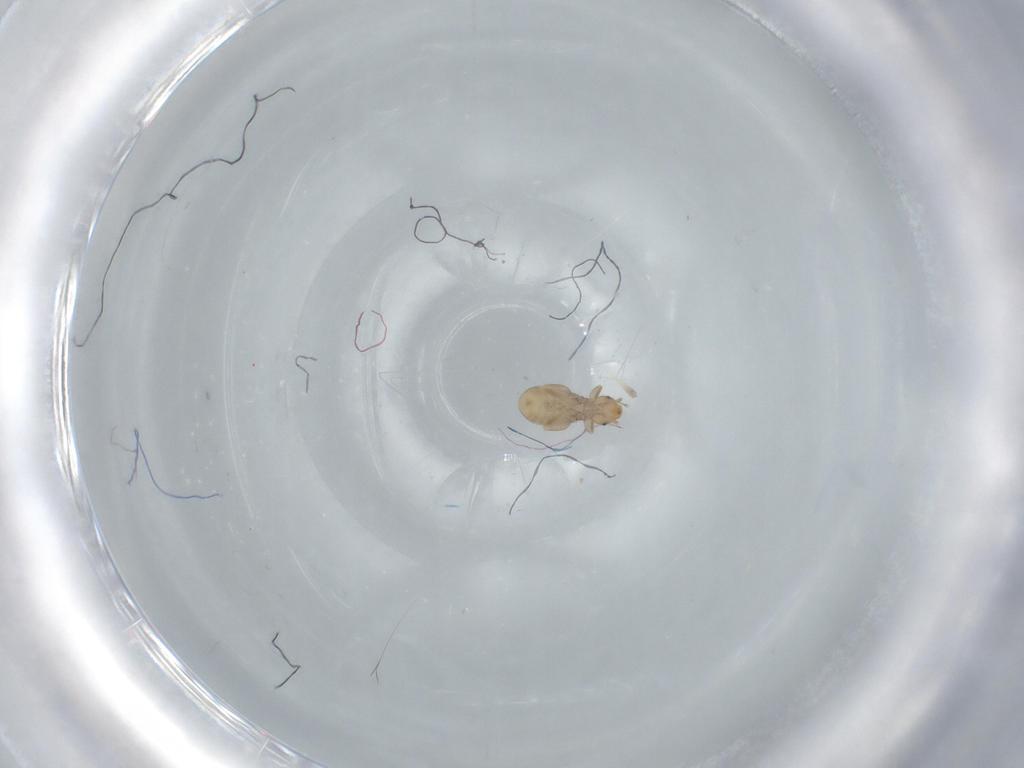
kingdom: Animalia
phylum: Arthropoda
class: Insecta
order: Psocodea
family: Liposcelididae
